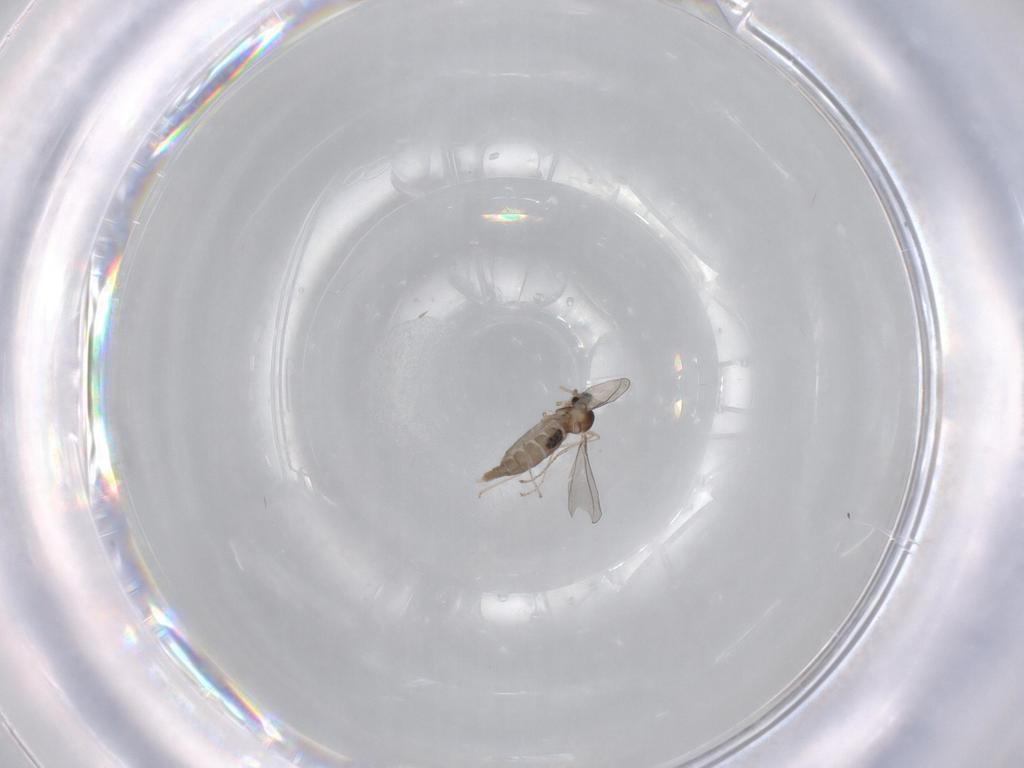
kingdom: Animalia
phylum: Arthropoda
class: Insecta
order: Diptera
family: Cecidomyiidae
